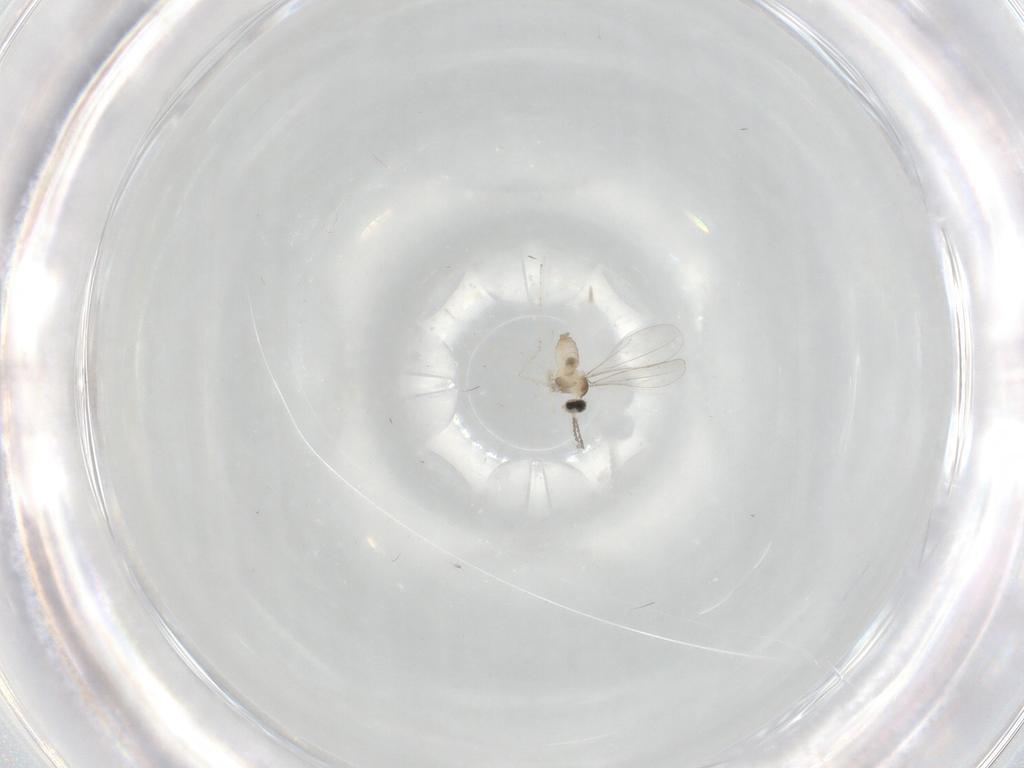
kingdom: Animalia
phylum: Arthropoda
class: Insecta
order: Diptera
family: Cecidomyiidae
